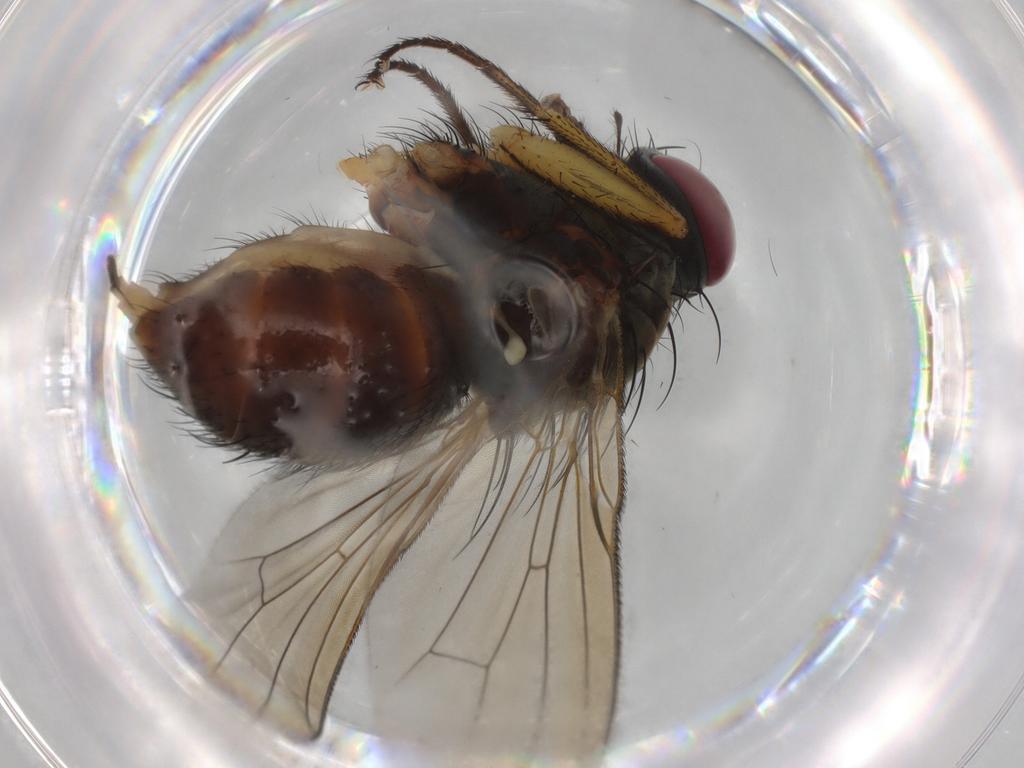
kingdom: Animalia
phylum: Arthropoda
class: Insecta
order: Diptera
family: Muscidae
